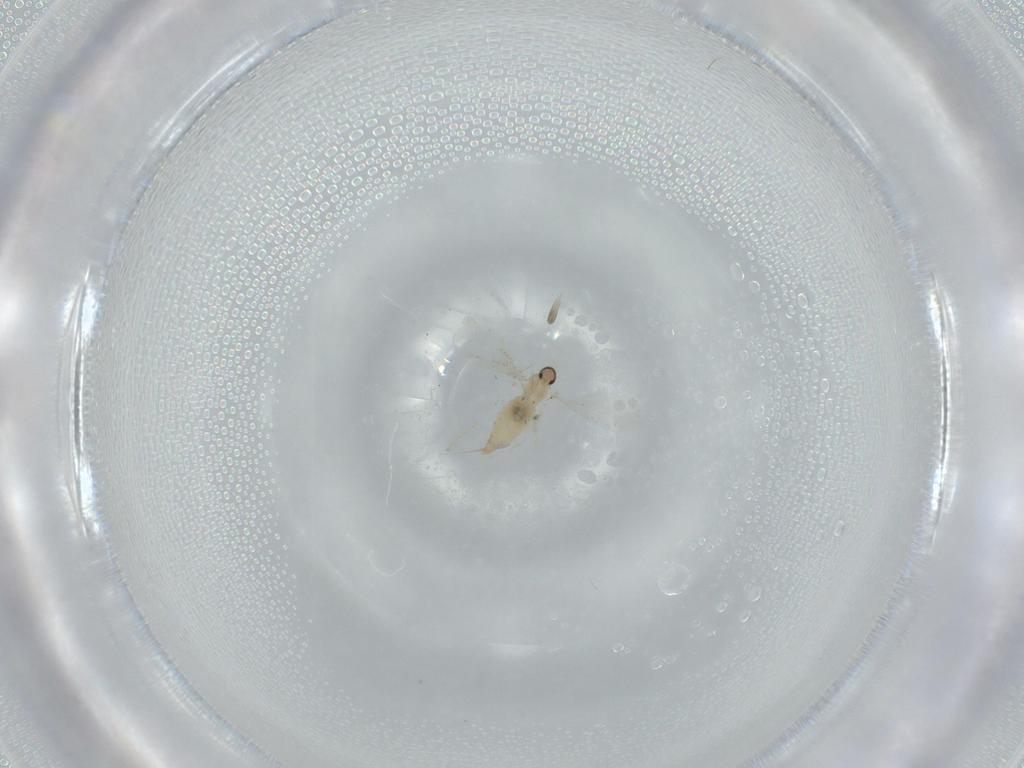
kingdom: Animalia
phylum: Arthropoda
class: Insecta
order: Diptera
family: Cecidomyiidae
